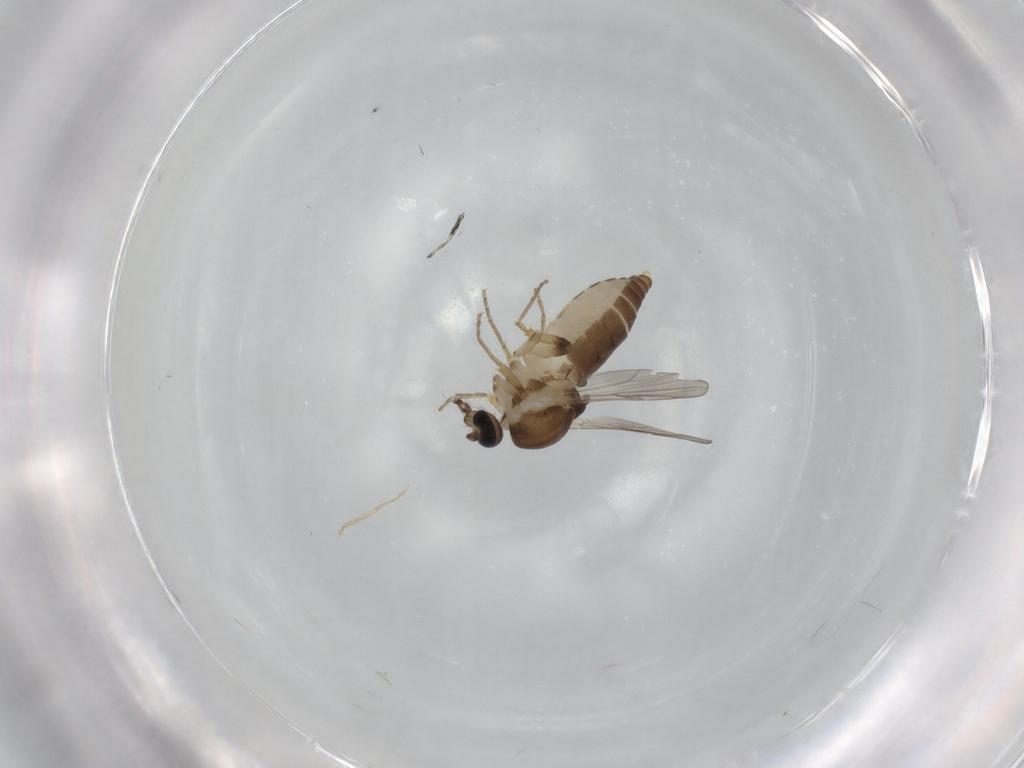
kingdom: Animalia
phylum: Arthropoda
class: Insecta
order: Diptera
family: Ceratopogonidae
